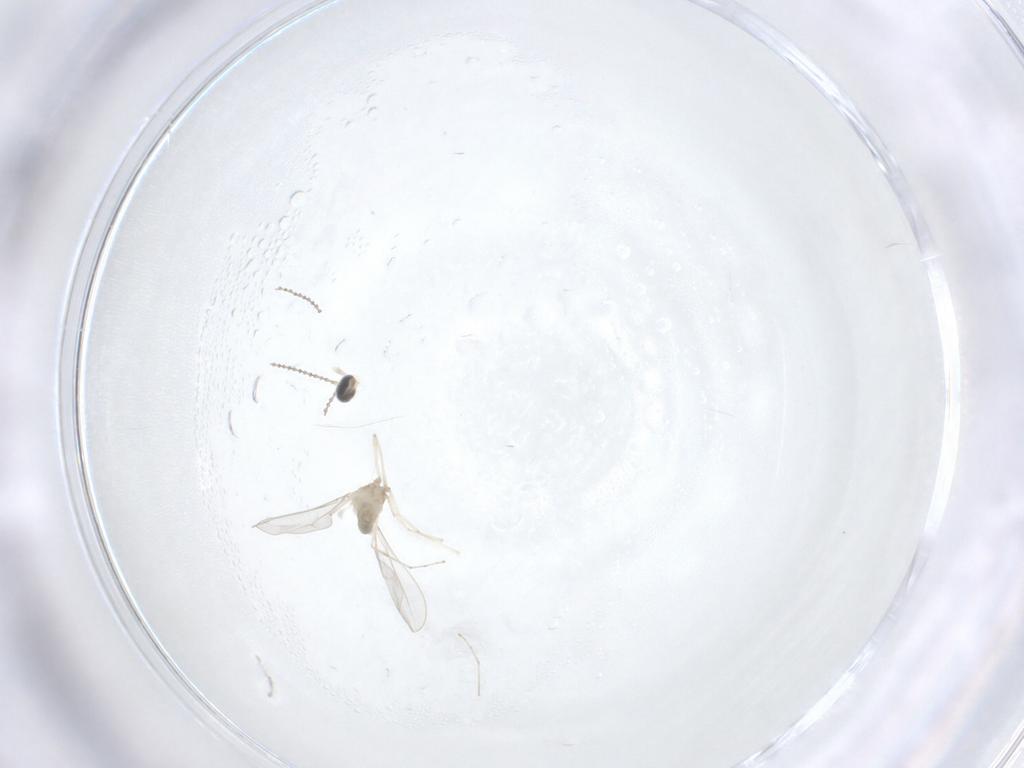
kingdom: Animalia
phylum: Arthropoda
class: Insecta
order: Diptera
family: Cecidomyiidae
